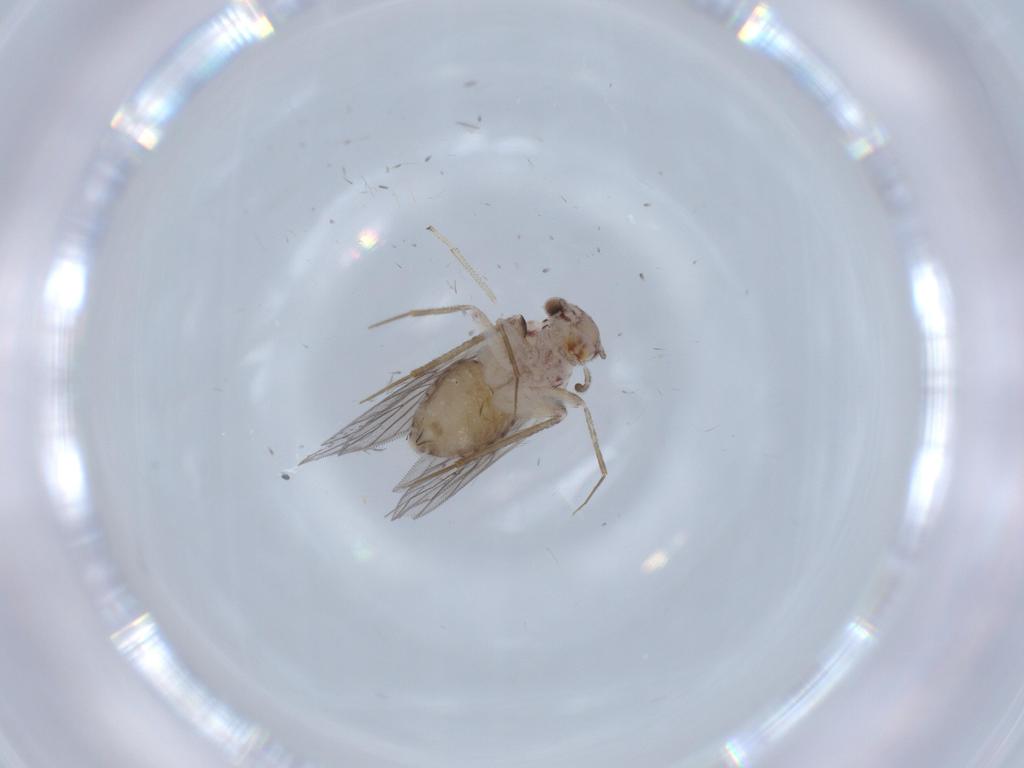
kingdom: Animalia
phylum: Arthropoda
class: Insecta
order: Psocodea
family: Lepidopsocidae
